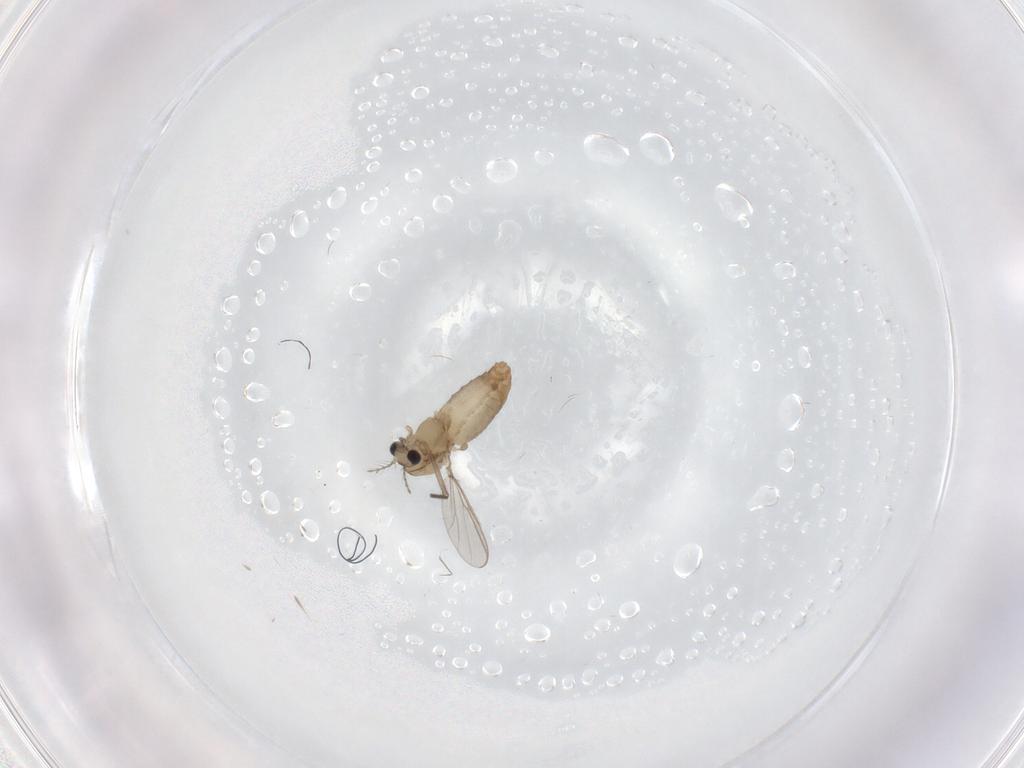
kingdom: Animalia
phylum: Arthropoda
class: Insecta
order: Diptera
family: Chironomidae
